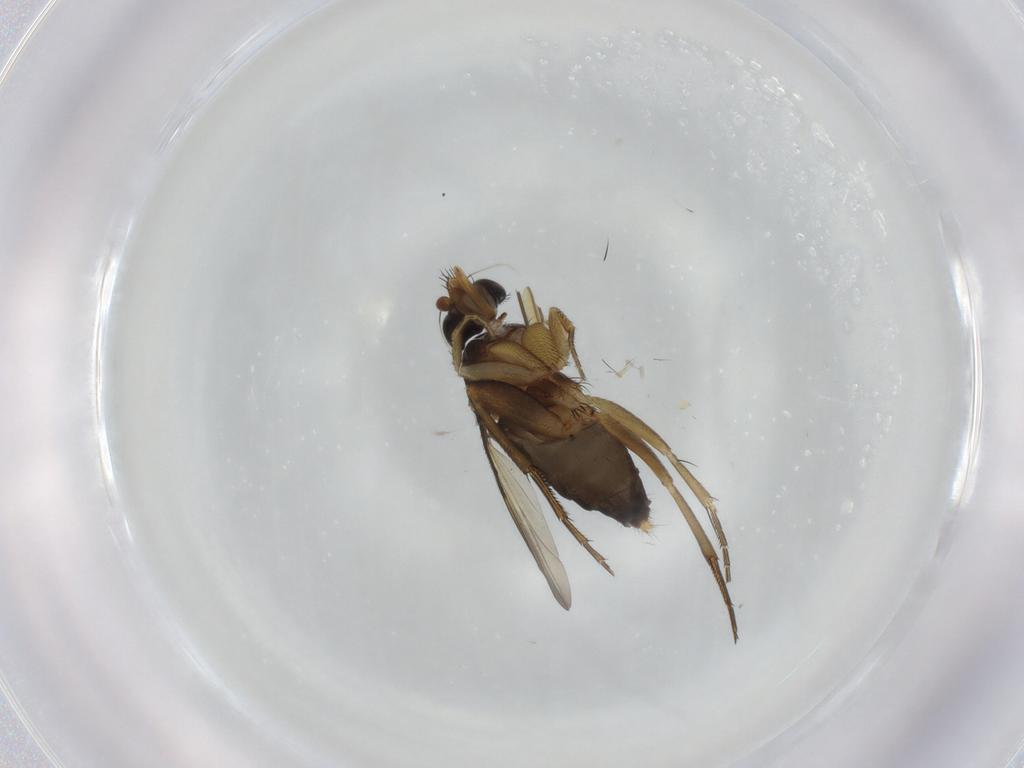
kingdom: Animalia
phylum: Arthropoda
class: Insecta
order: Diptera
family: Phoridae
